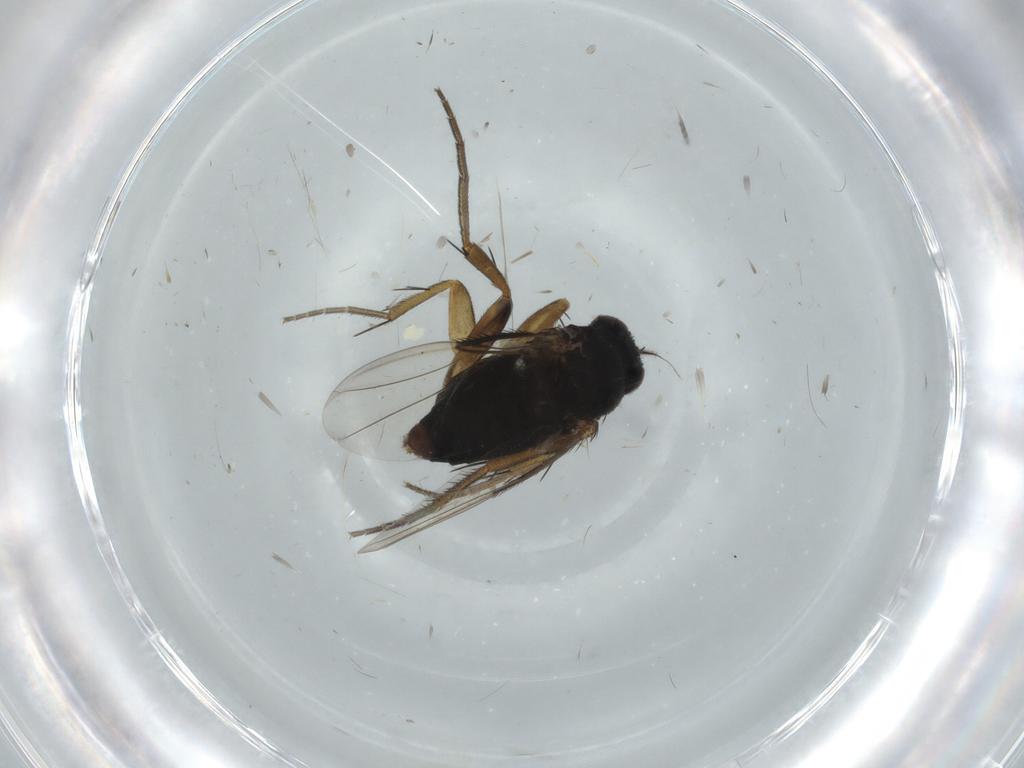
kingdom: Animalia
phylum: Arthropoda
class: Insecta
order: Diptera
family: Phoridae
